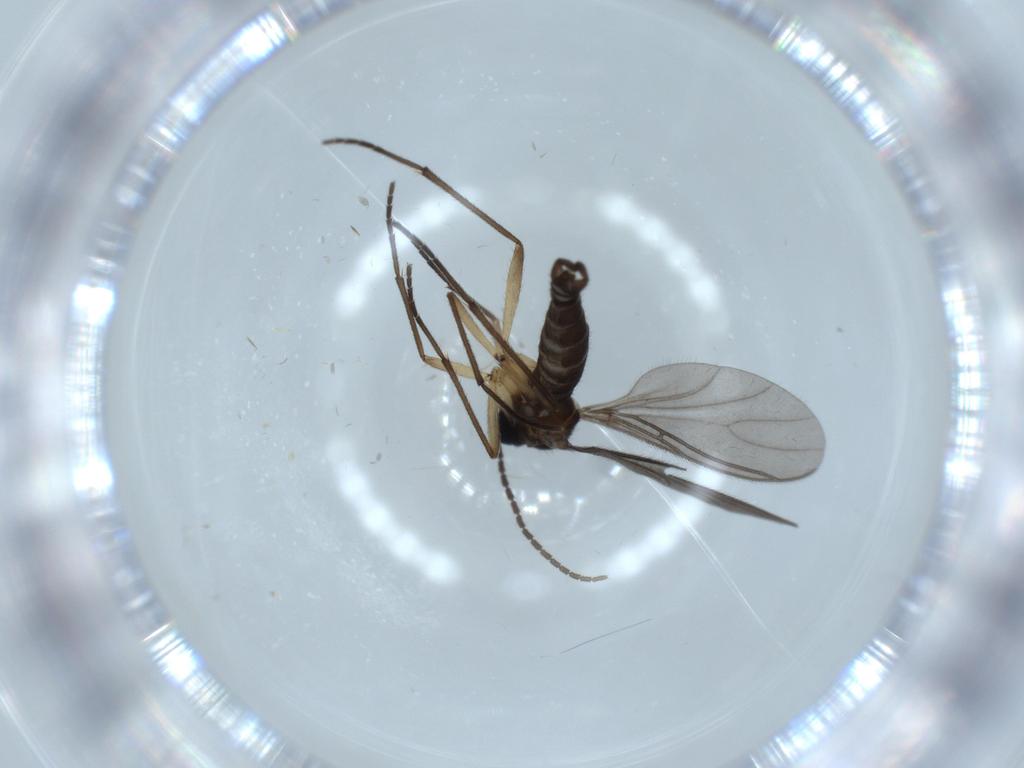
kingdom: Animalia
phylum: Arthropoda
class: Insecta
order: Diptera
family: Sciaridae
